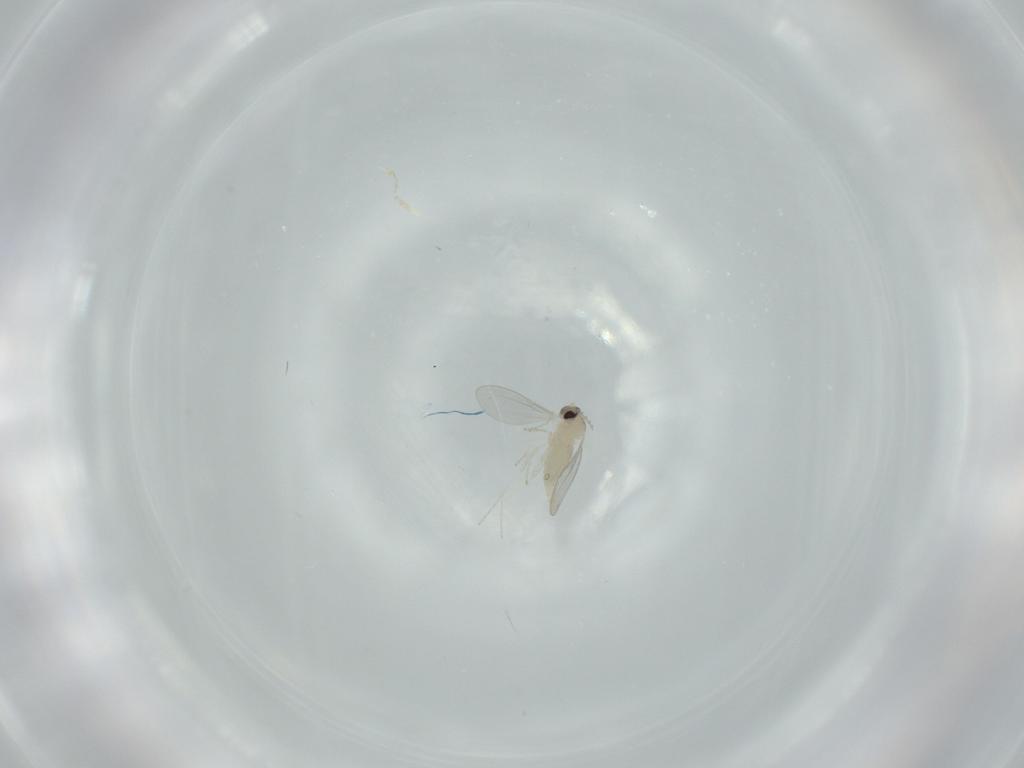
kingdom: Animalia
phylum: Arthropoda
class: Insecta
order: Diptera
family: Cecidomyiidae
